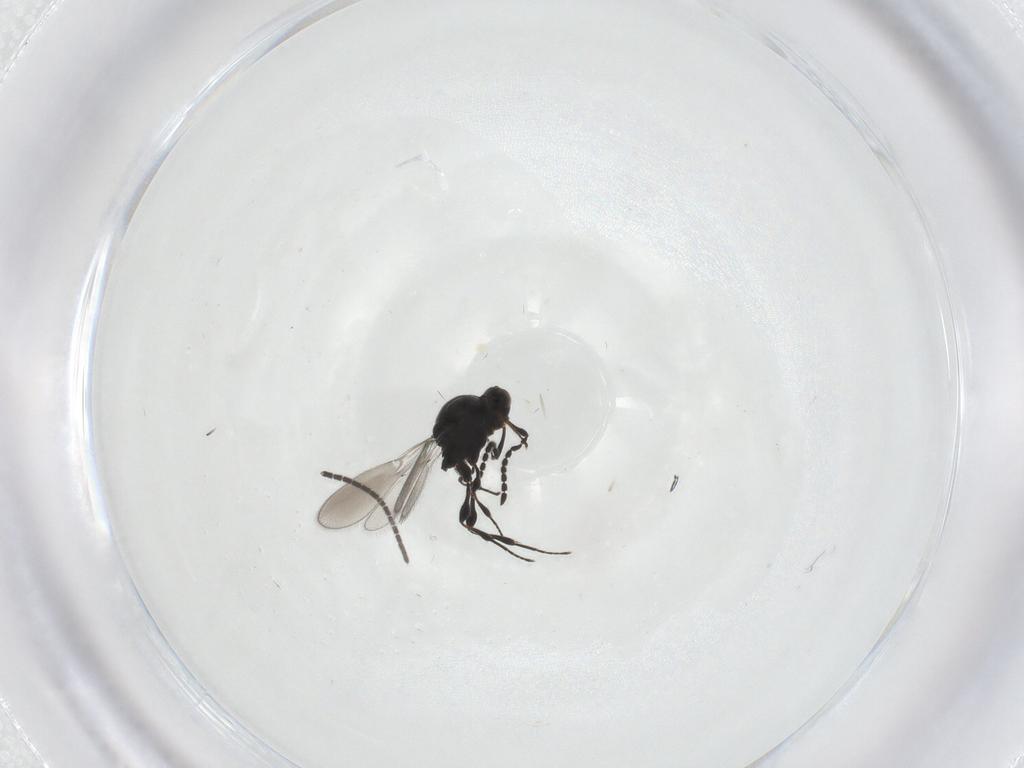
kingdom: Animalia
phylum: Arthropoda
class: Insecta
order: Hymenoptera
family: Platygastridae
